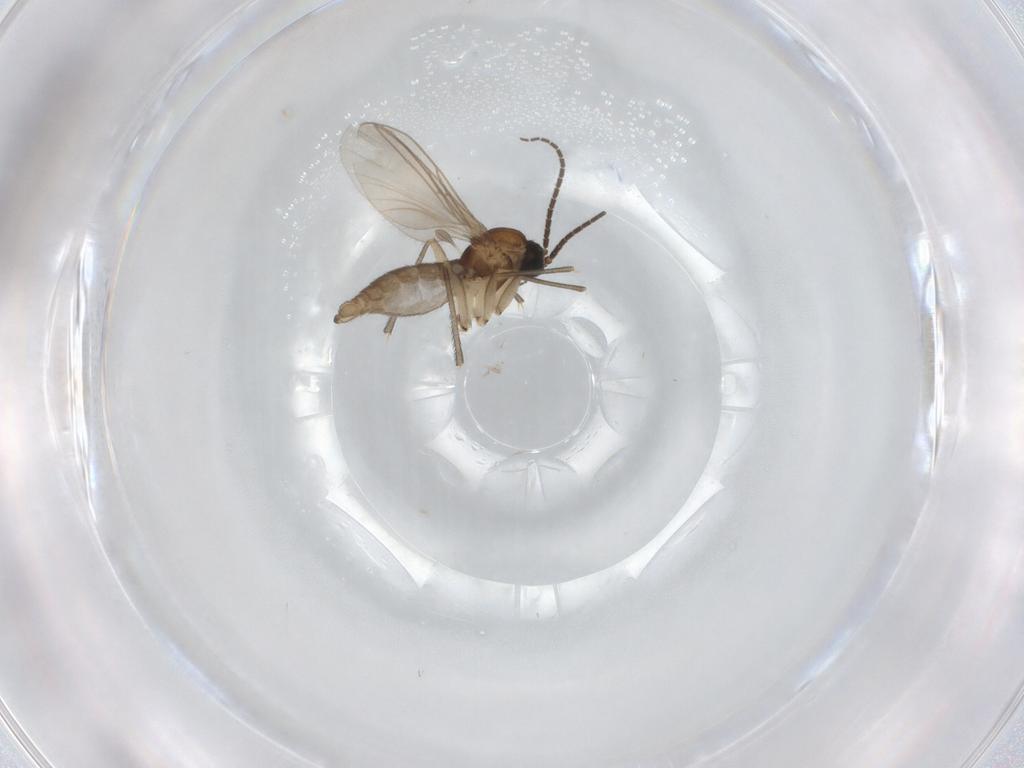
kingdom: Animalia
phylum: Arthropoda
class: Insecta
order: Diptera
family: Sciaridae
